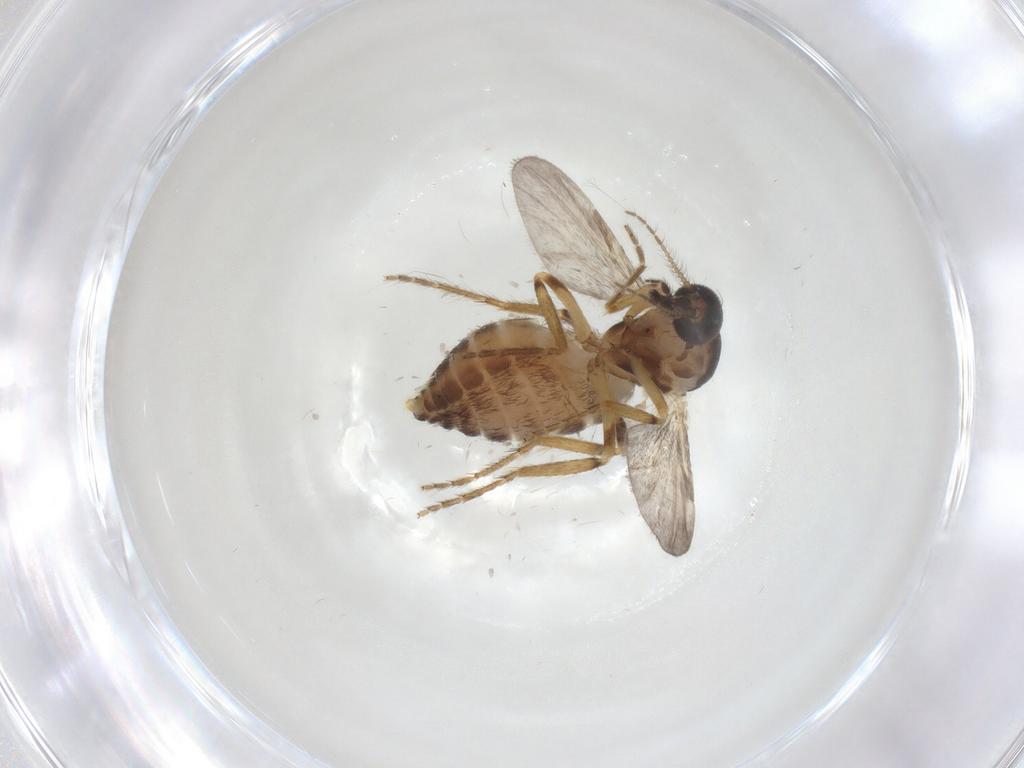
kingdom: Animalia
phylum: Arthropoda
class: Insecta
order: Diptera
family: Ceratopogonidae
